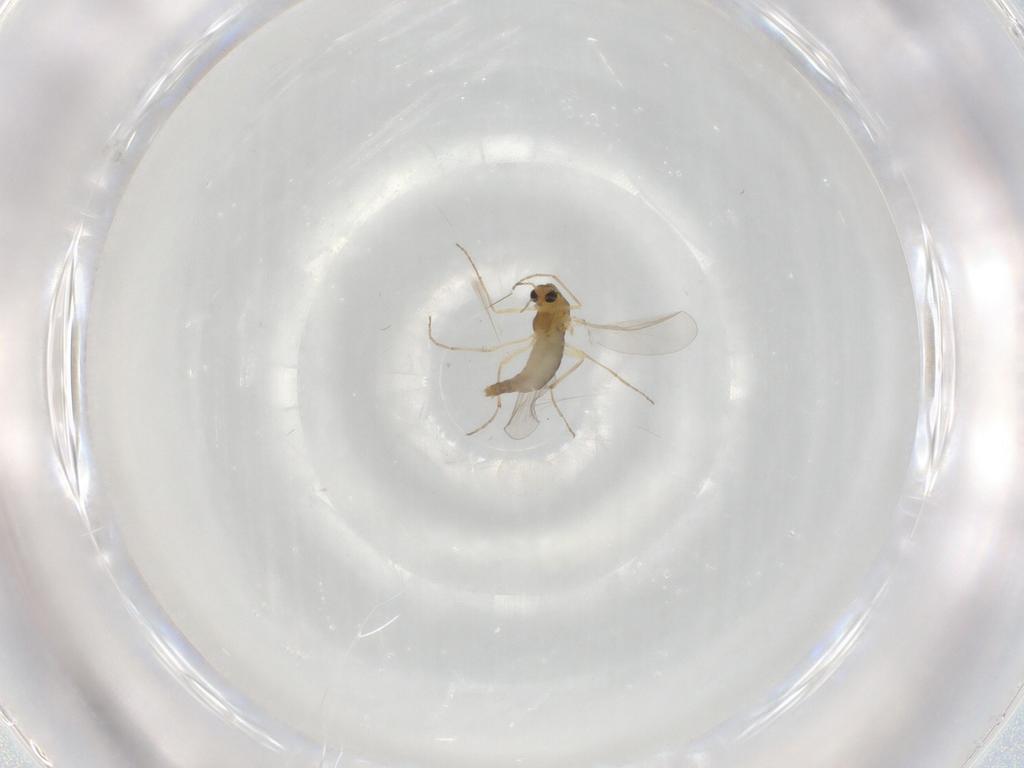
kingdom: Animalia
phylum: Arthropoda
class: Insecta
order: Diptera
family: Chironomidae
